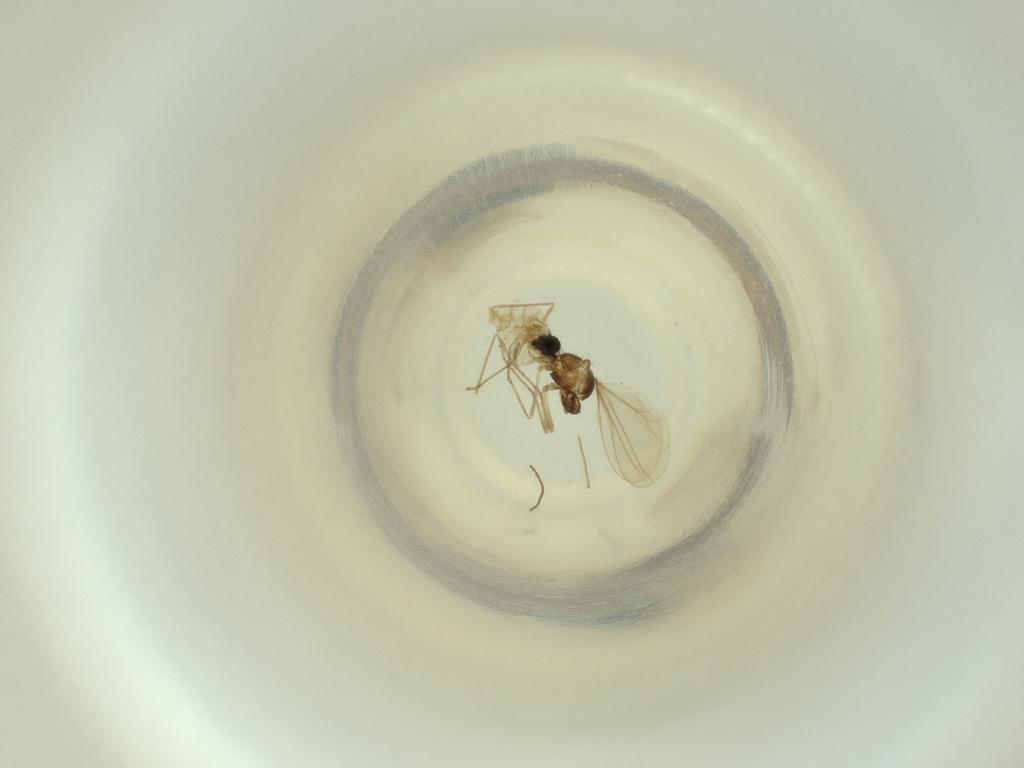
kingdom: Animalia
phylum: Arthropoda
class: Insecta
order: Diptera
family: Cecidomyiidae
